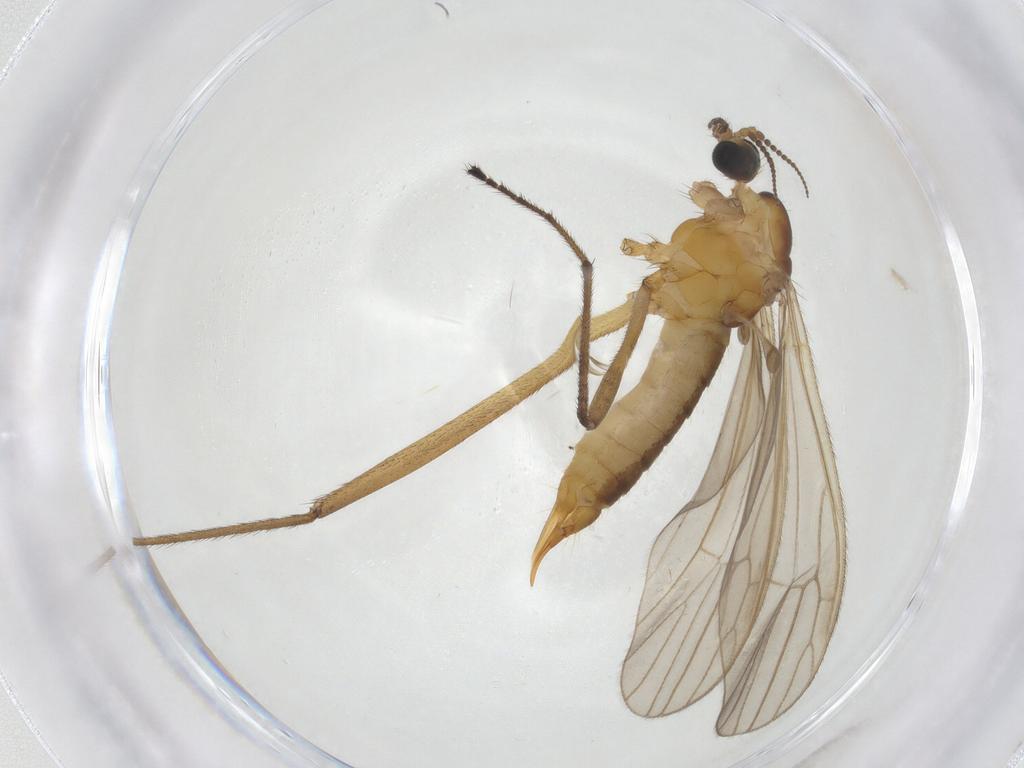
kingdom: Animalia
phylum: Arthropoda
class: Insecta
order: Diptera
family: Limoniidae
